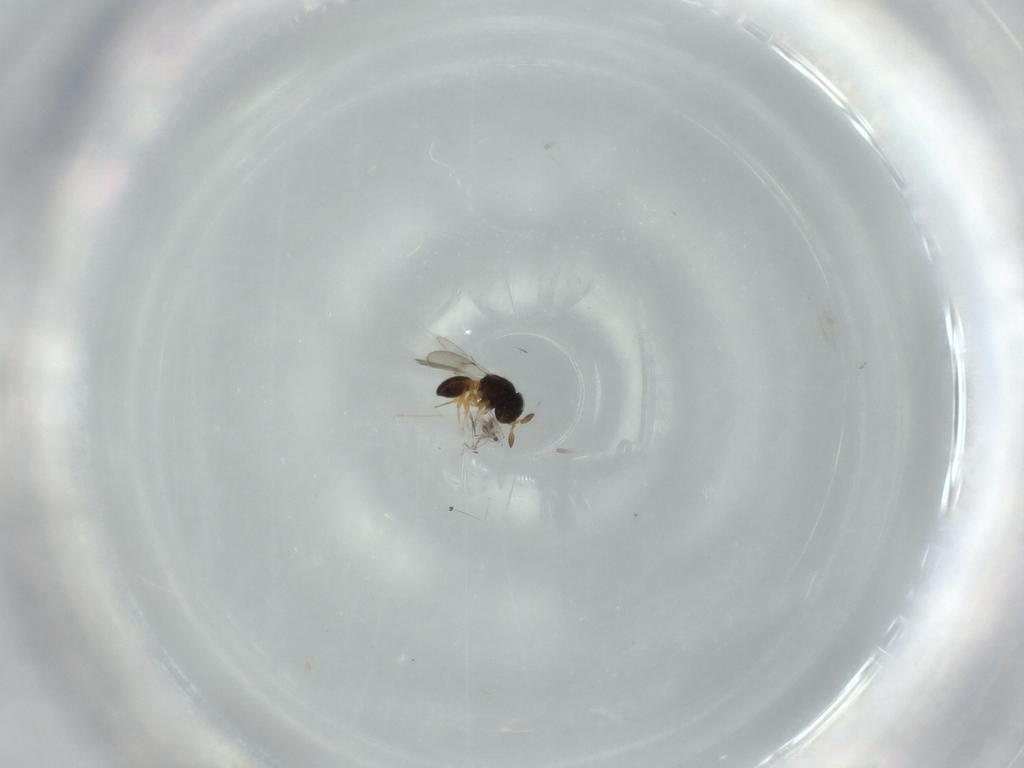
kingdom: Animalia
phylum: Arthropoda
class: Insecta
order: Hymenoptera
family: Scelionidae
